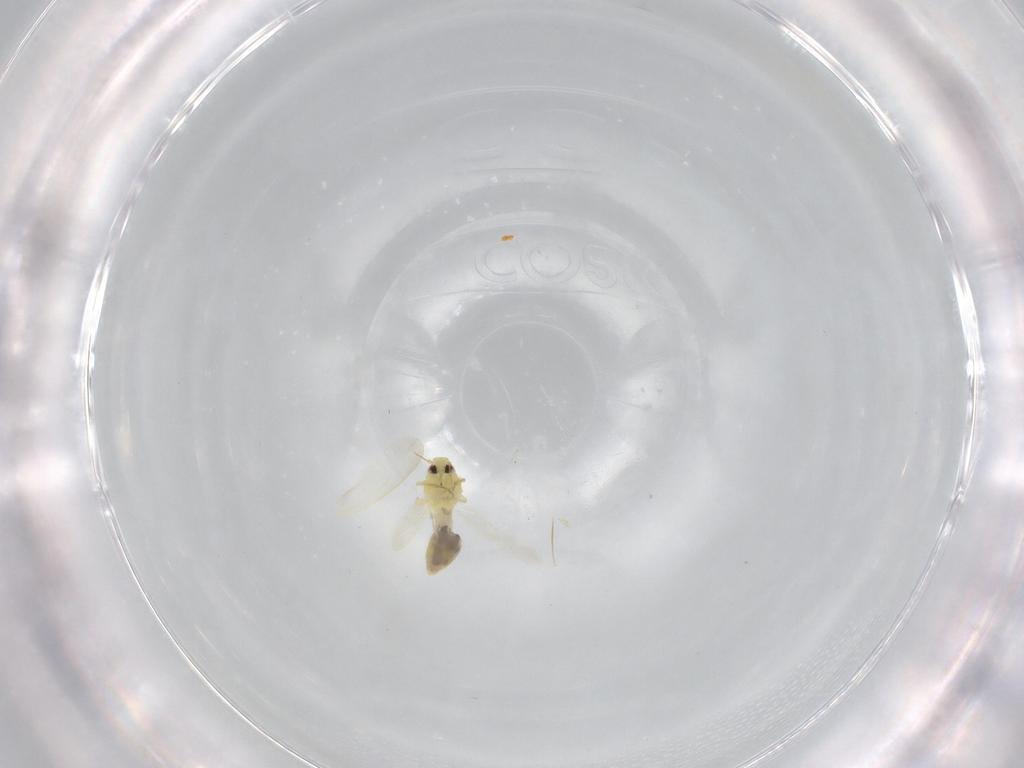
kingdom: Animalia
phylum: Arthropoda
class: Insecta
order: Hemiptera
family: Aleyrodidae
